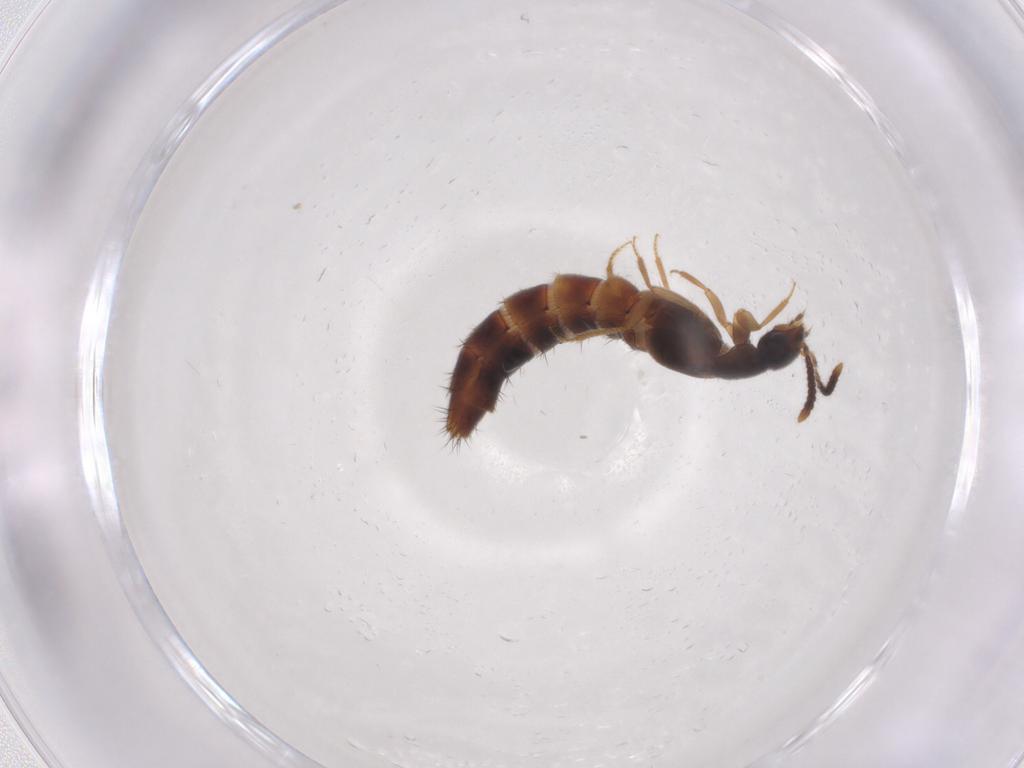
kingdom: Animalia
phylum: Arthropoda
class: Insecta
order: Coleoptera
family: Staphylinidae
